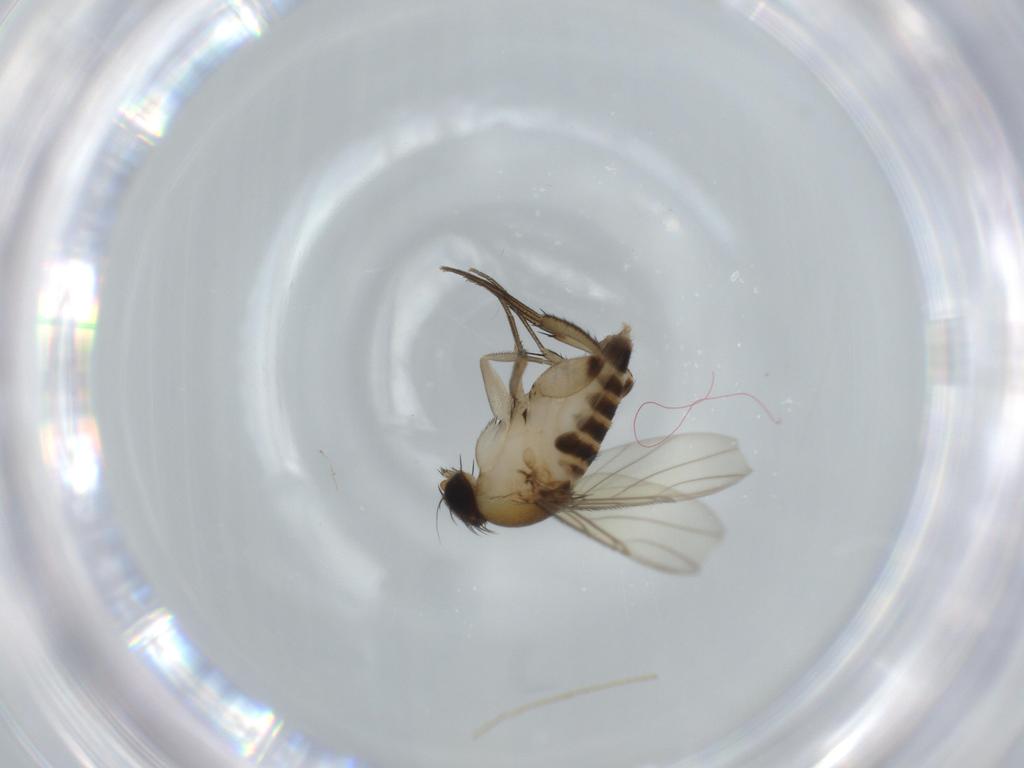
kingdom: Animalia
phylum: Arthropoda
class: Insecta
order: Diptera
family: Phoridae
